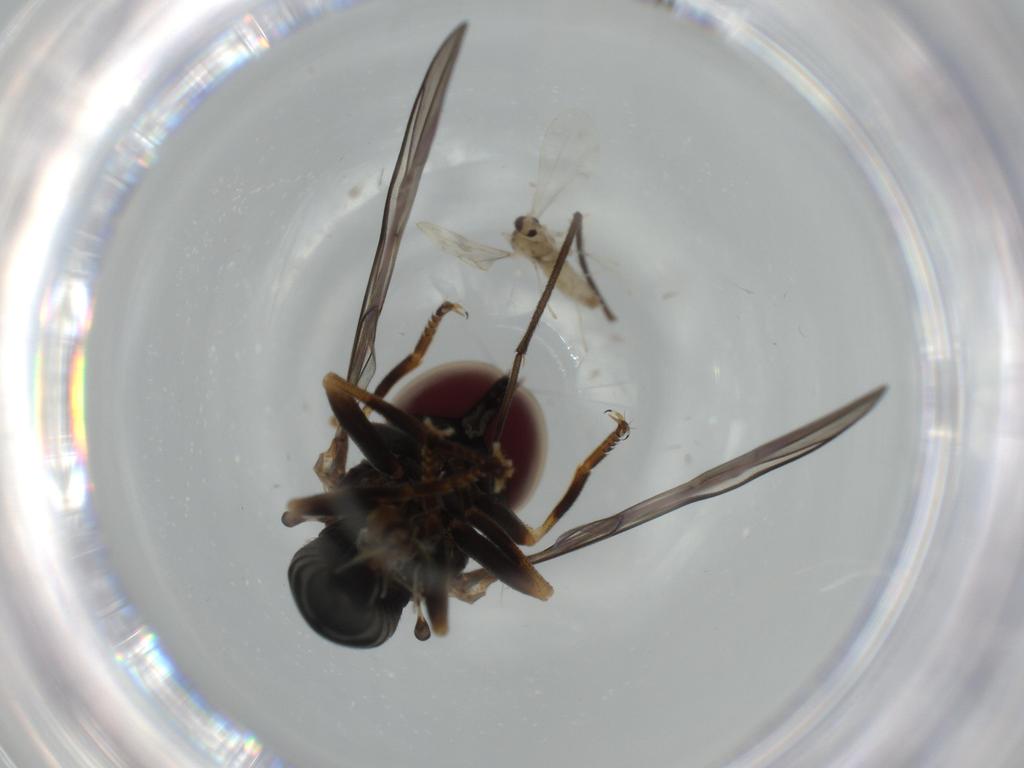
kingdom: Animalia
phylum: Arthropoda
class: Insecta
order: Diptera
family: Cecidomyiidae
